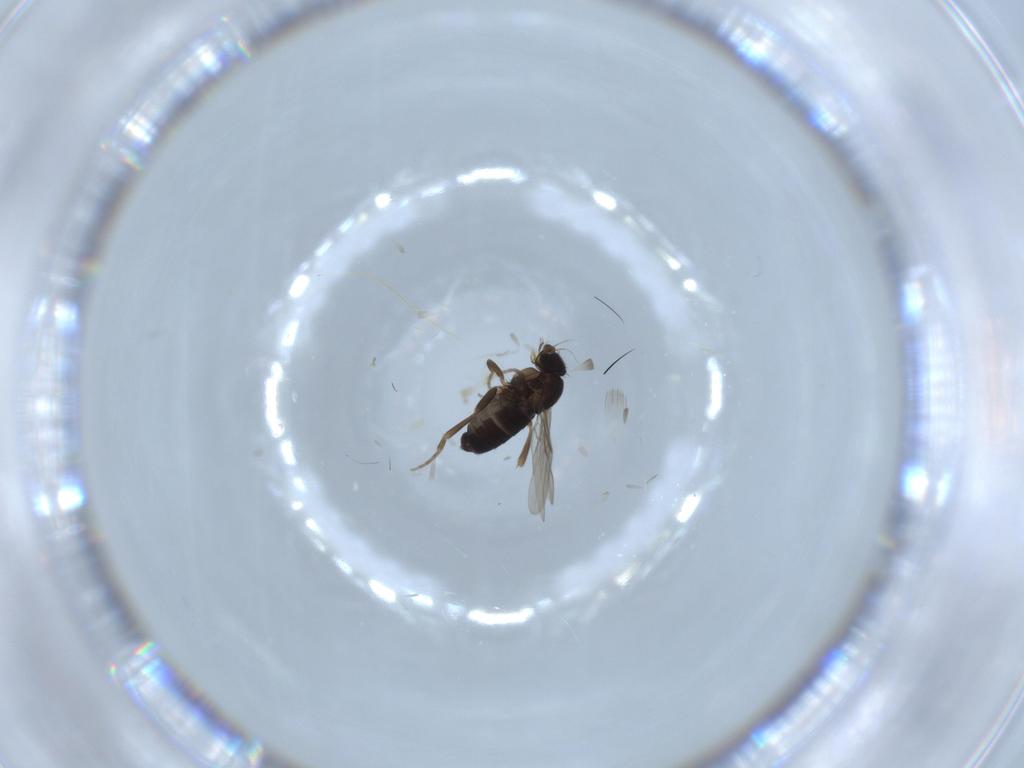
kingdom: Animalia
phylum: Arthropoda
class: Insecta
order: Diptera
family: Phoridae
